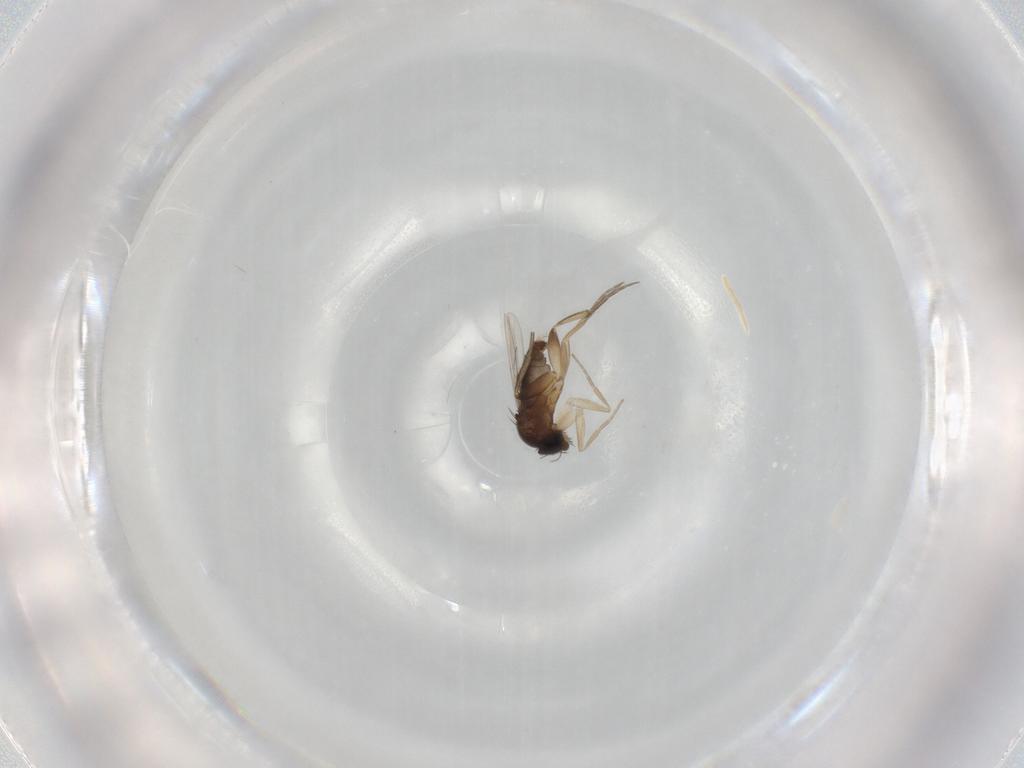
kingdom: Animalia
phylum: Arthropoda
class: Insecta
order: Diptera
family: Phoridae
